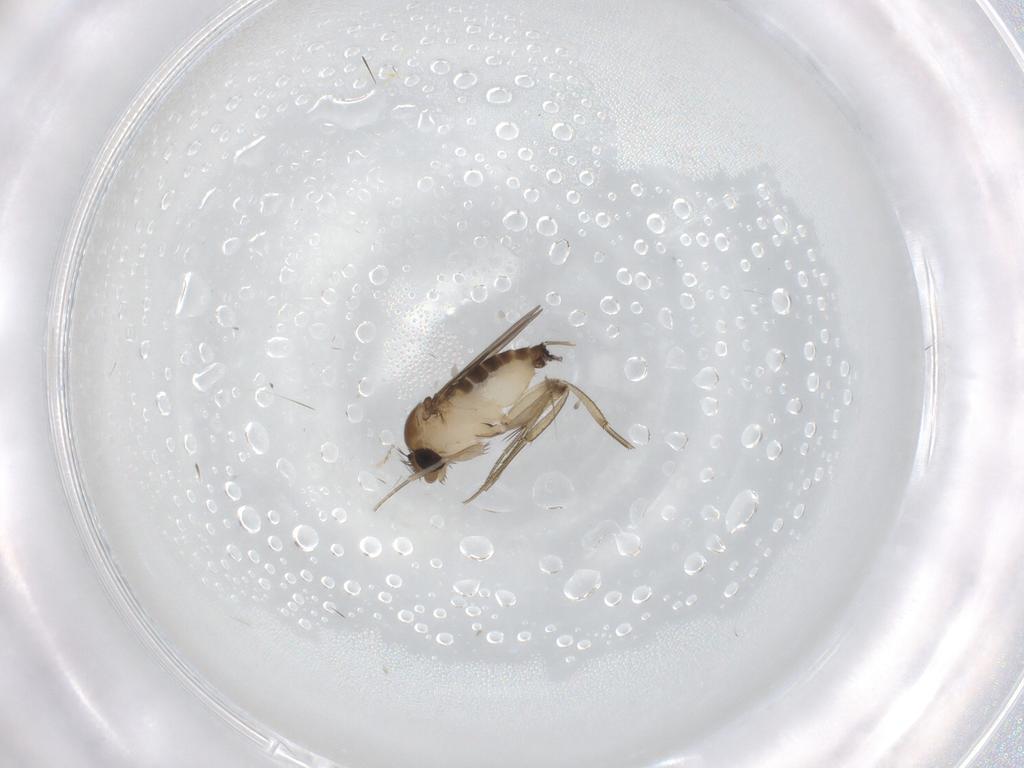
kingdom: Animalia
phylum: Arthropoda
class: Insecta
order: Diptera
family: Phoridae
